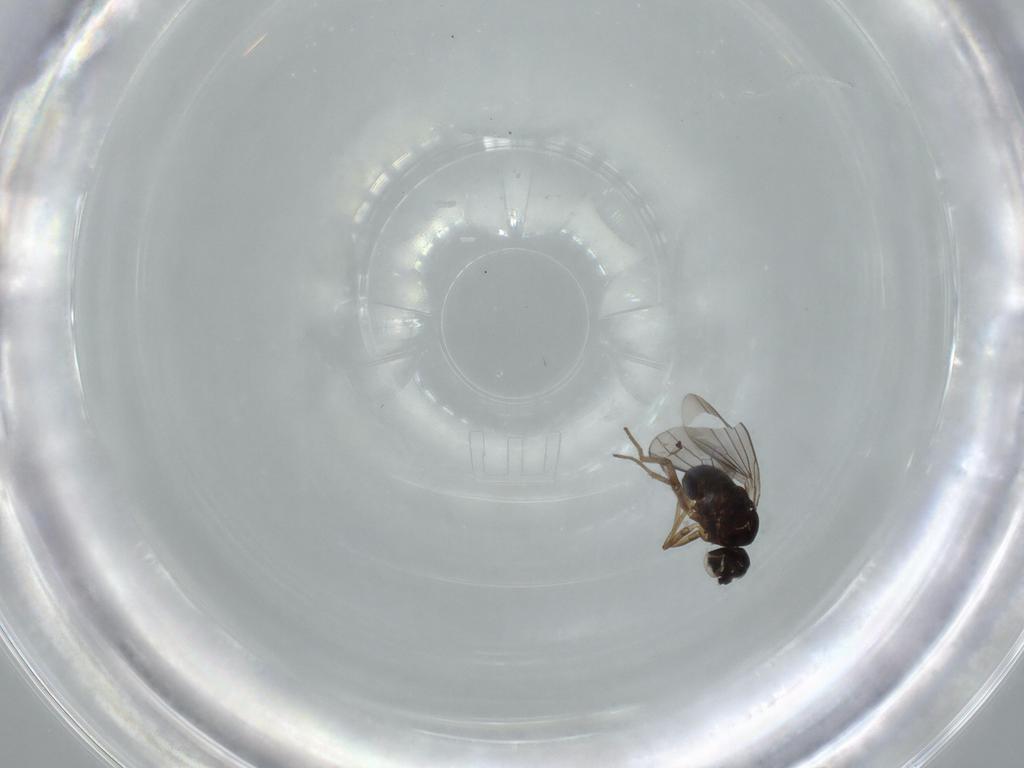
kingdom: Animalia
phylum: Arthropoda
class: Insecta
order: Diptera
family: Dolichopodidae
